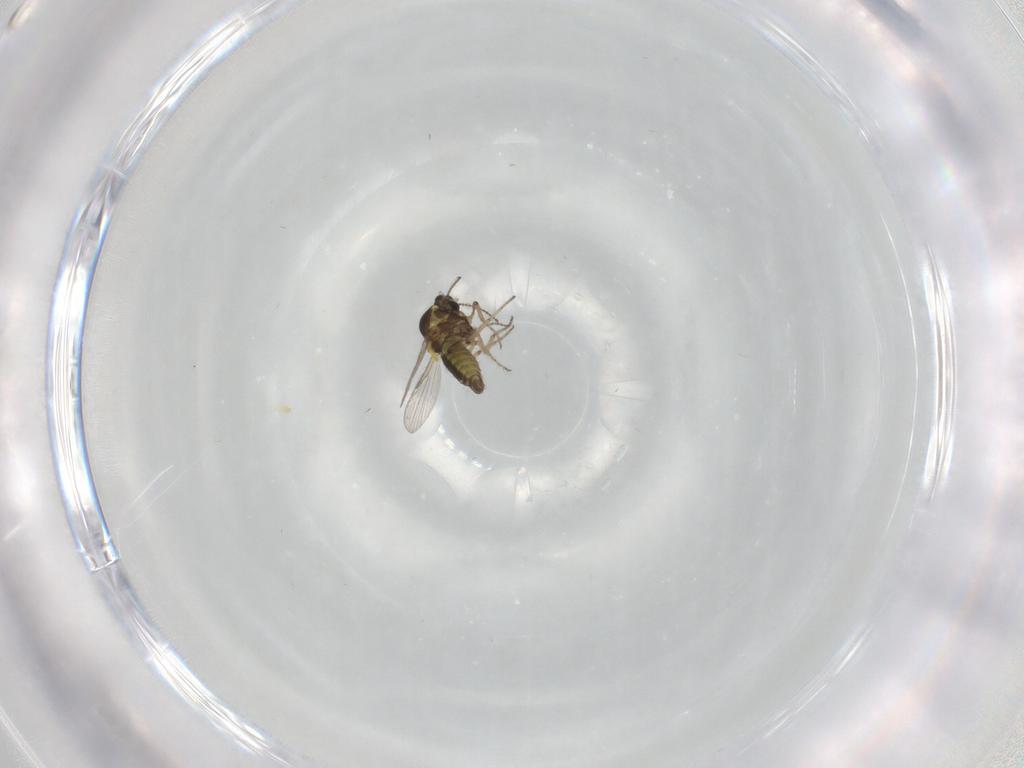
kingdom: Animalia
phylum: Arthropoda
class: Insecta
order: Diptera
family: Ceratopogonidae
